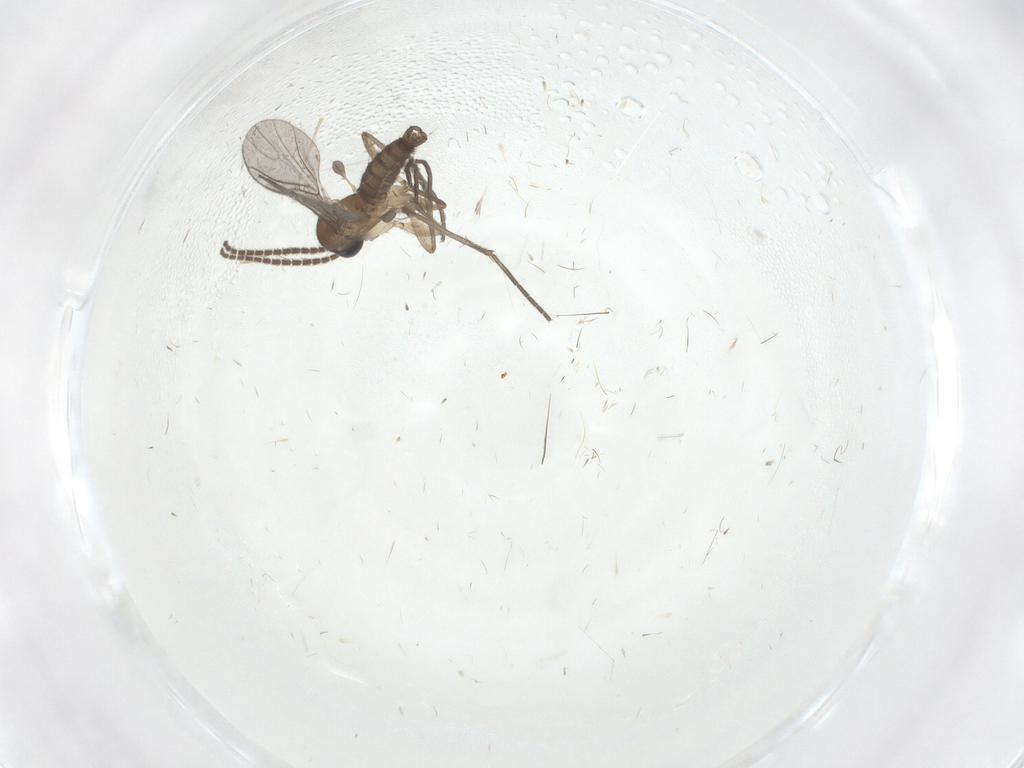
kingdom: Animalia
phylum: Arthropoda
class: Insecta
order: Diptera
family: Sciaridae
